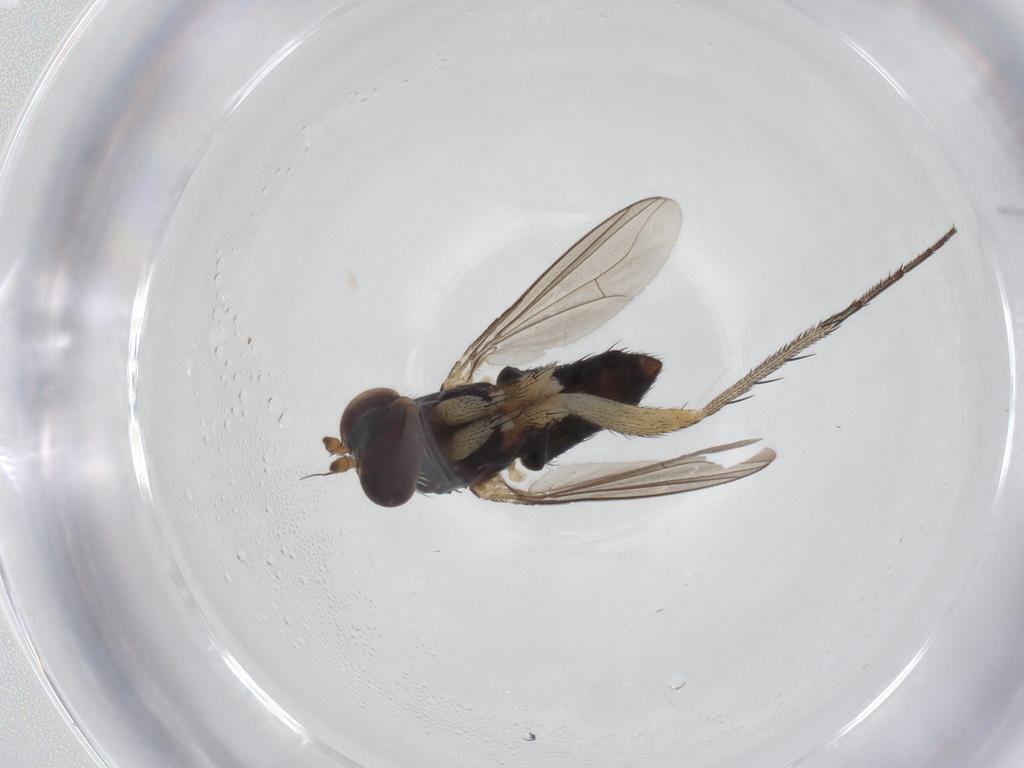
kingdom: Animalia
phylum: Arthropoda
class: Insecta
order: Diptera
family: Dolichopodidae
